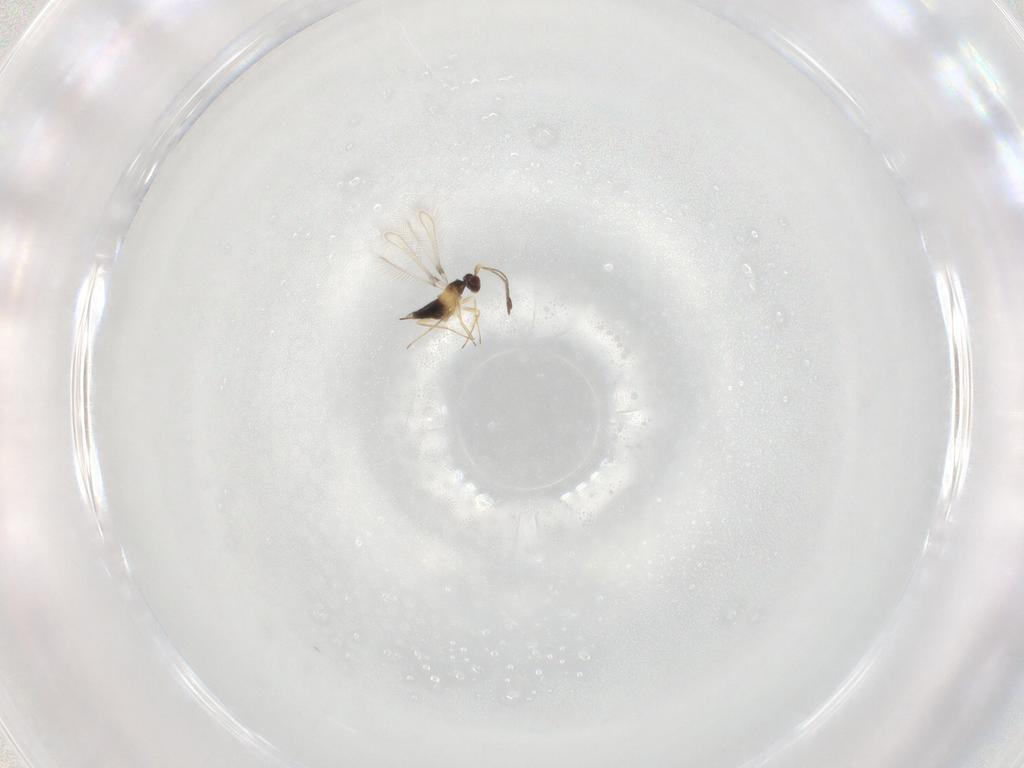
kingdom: Animalia
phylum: Arthropoda
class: Insecta
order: Hymenoptera
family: Mymaridae
